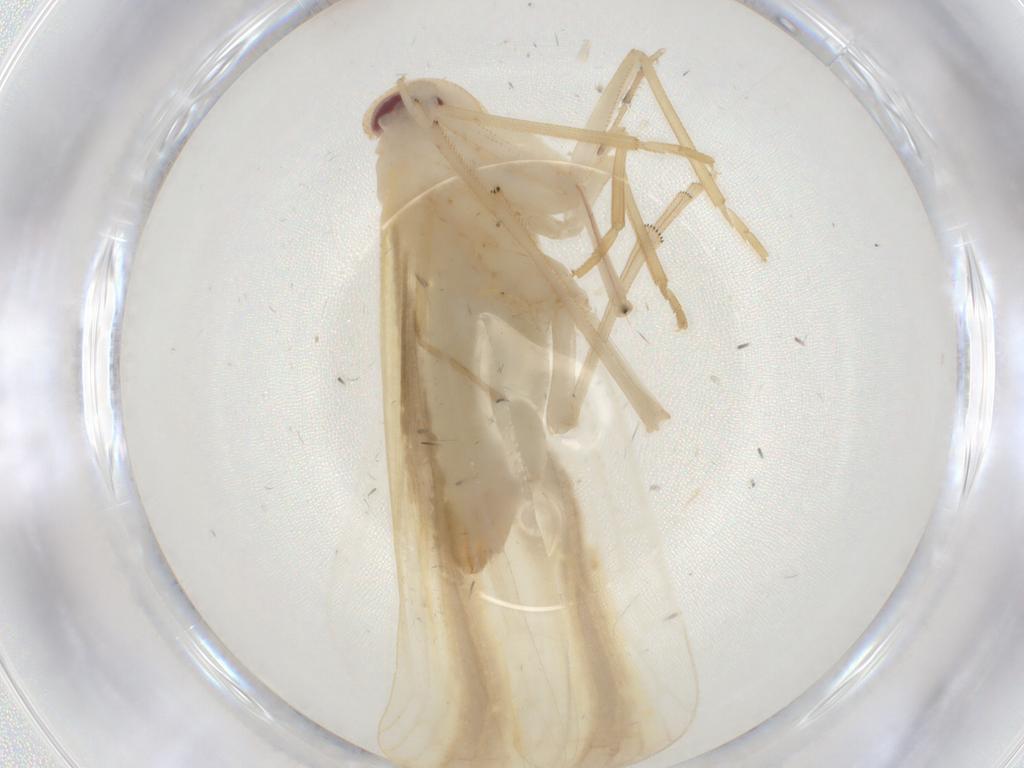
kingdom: Animalia
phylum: Arthropoda
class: Insecta
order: Hemiptera
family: Derbidae
